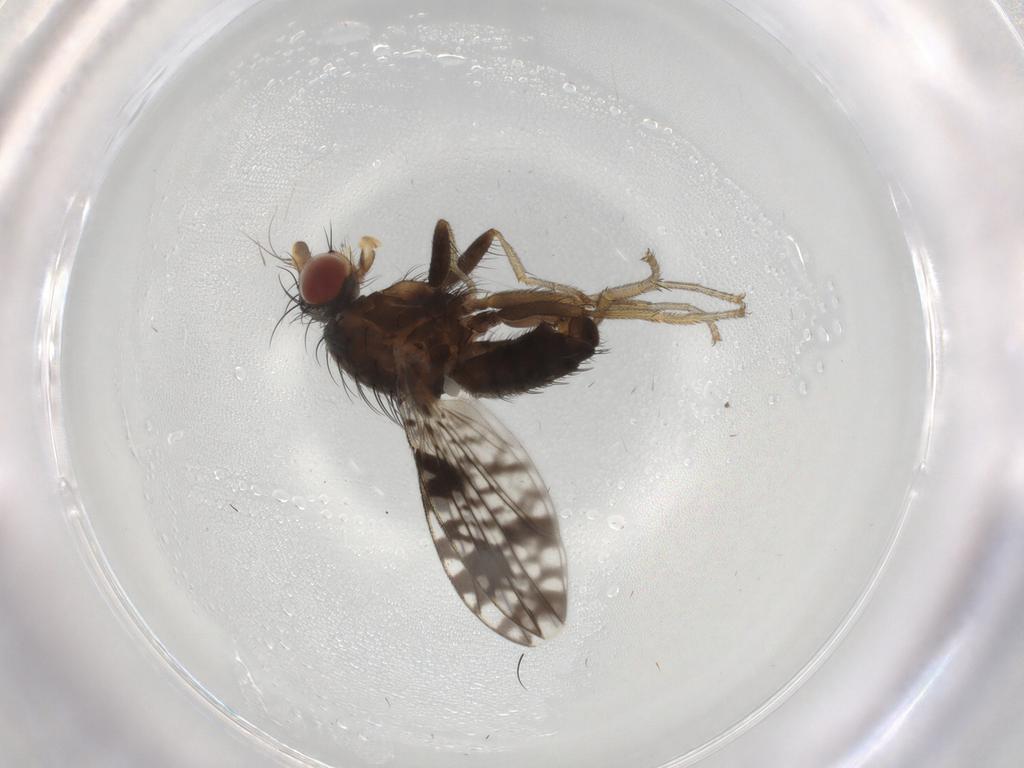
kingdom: Animalia
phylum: Arthropoda
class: Insecta
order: Diptera
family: Tephritidae
